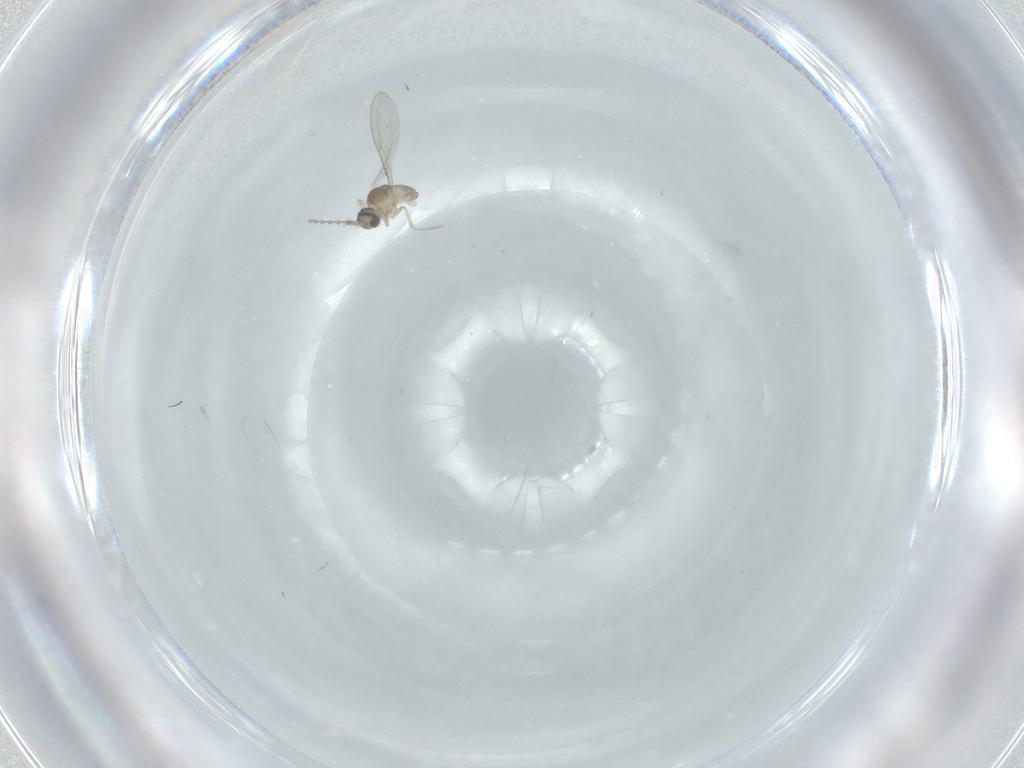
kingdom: Animalia
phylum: Arthropoda
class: Insecta
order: Diptera
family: Cecidomyiidae
